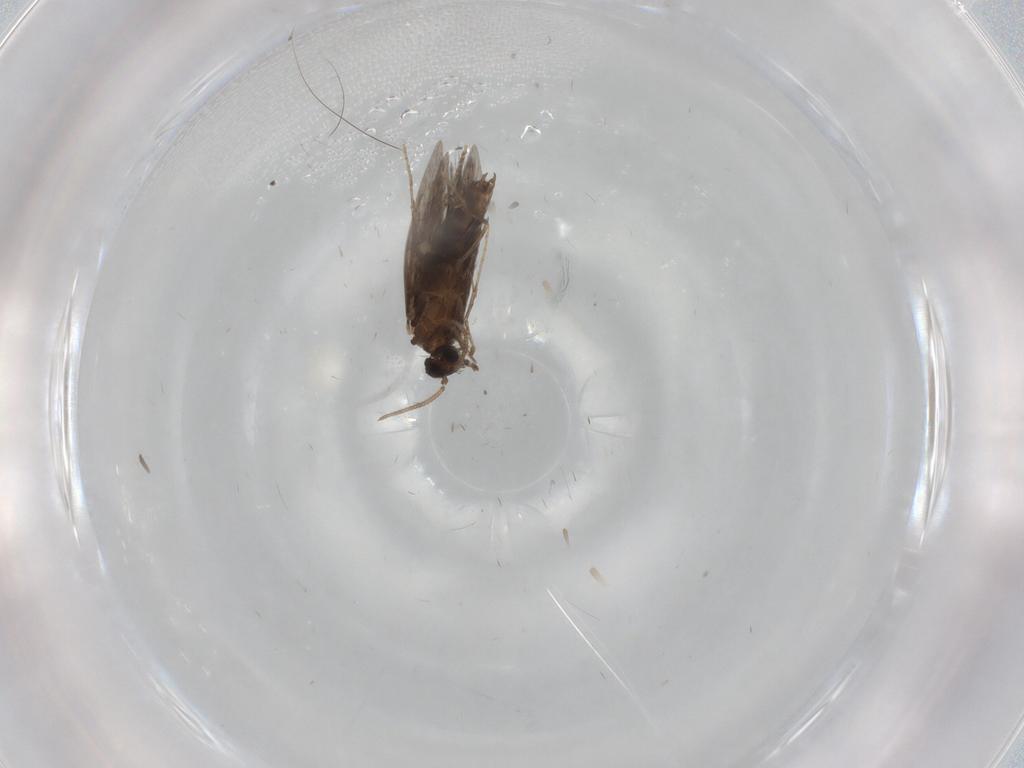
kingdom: Animalia
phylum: Arthropoda
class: Insecta
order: Trichoptera
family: Hydroptilidae
